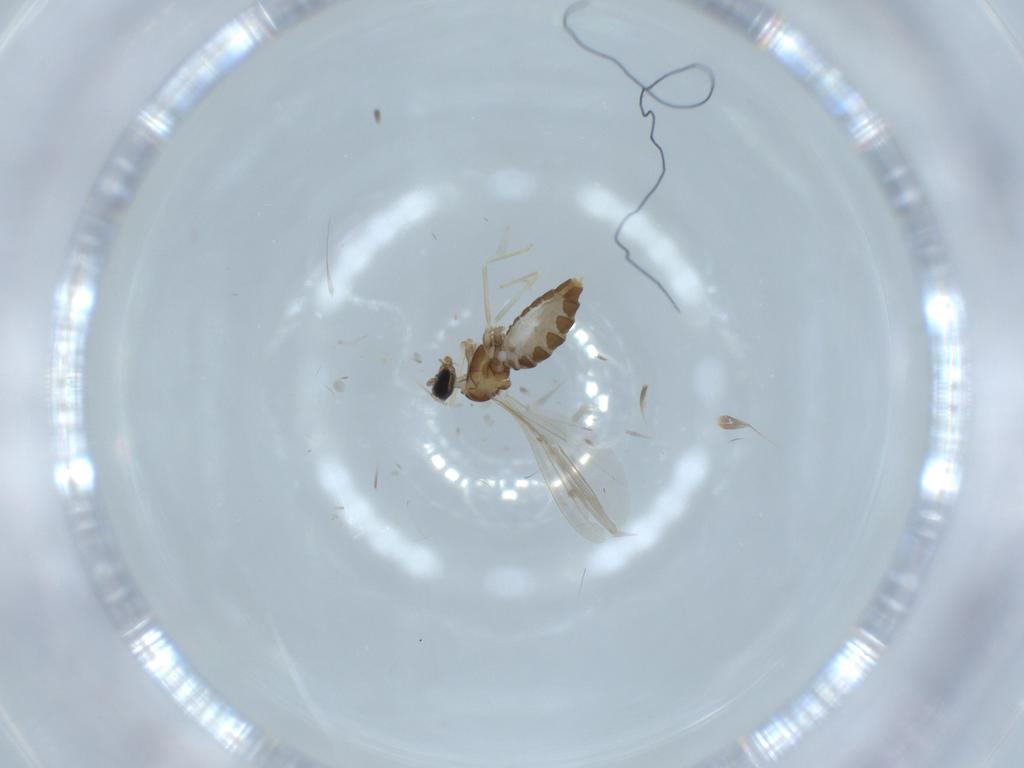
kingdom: Animalia
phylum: Arthropoda
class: Insecta
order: Diptera
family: Cecidomyiidae
